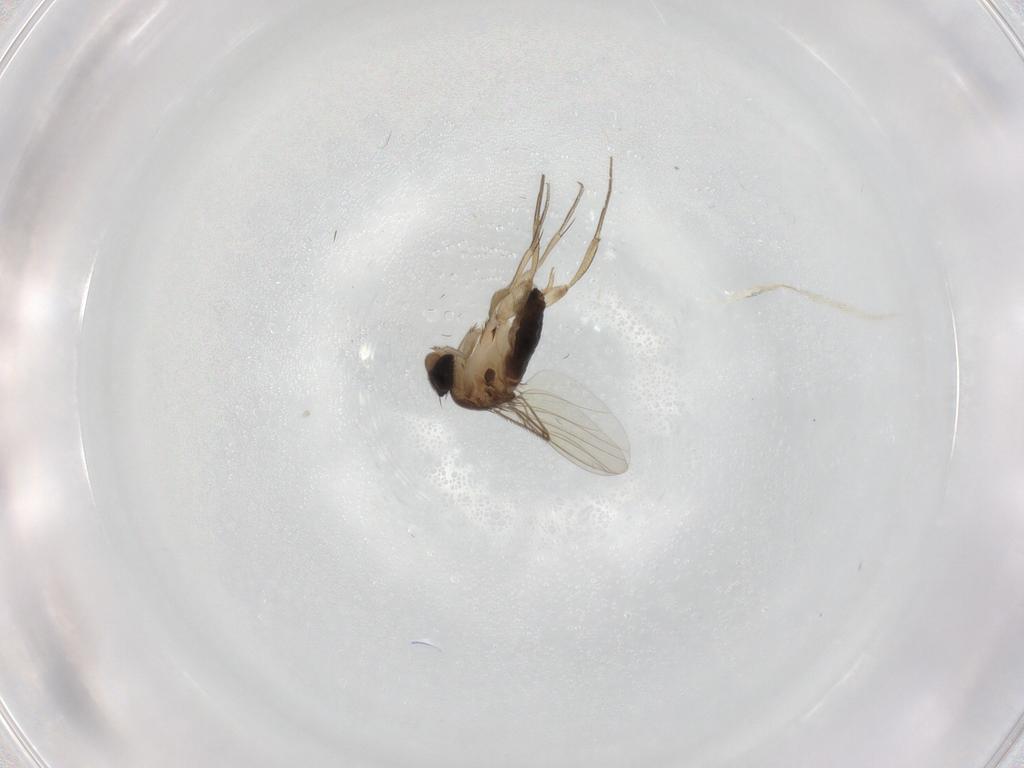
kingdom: Animalia
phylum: Arthropoda
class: Insecta
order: Diptera
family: Phoridae
